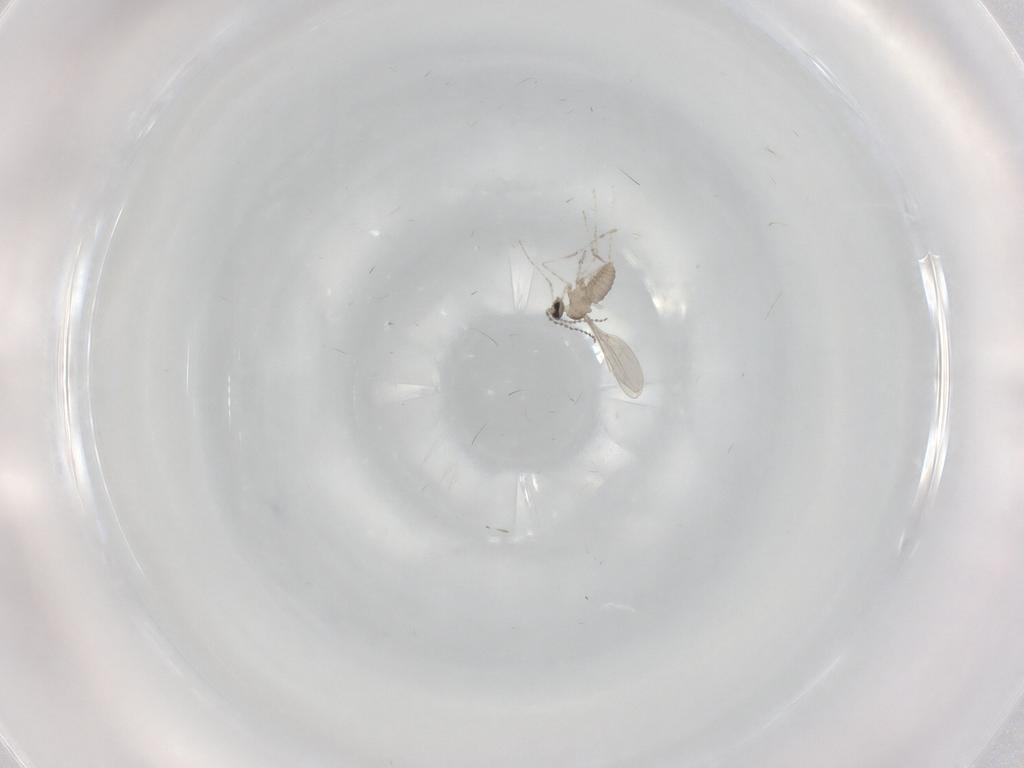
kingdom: Animalia
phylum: Arthropoda
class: Insecta
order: Diptera
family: Cecidomyiidae
